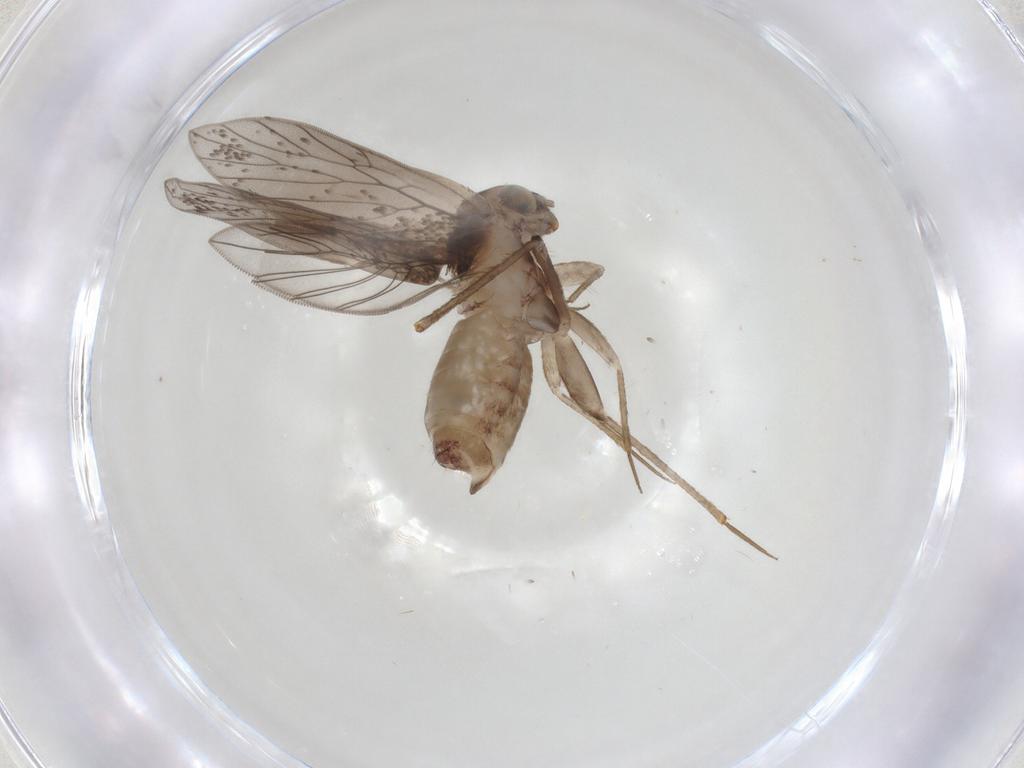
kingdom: Animalia
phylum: Arthropoda
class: Insecta
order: Psocodea
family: Lepidopsocidae
